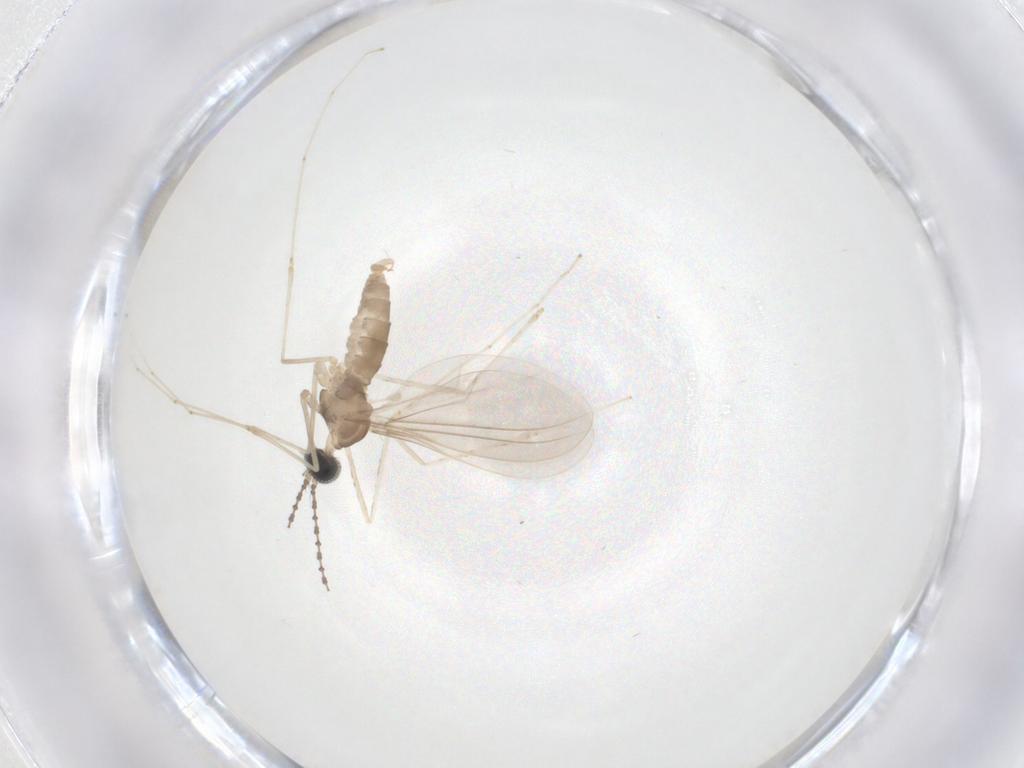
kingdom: Animalia
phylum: Arthropoda
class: Insecta
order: Diptera
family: Cecidomyiidae
